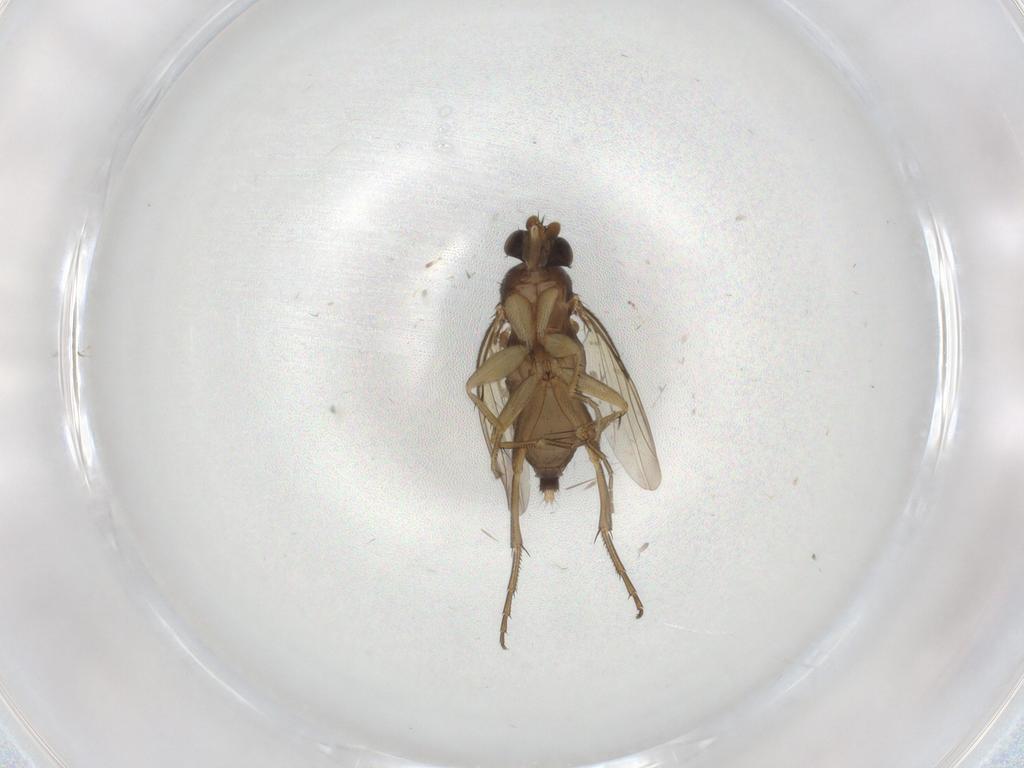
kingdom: Animalia
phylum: Arthropoda
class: Insecta
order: Diptera
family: Phoridae
